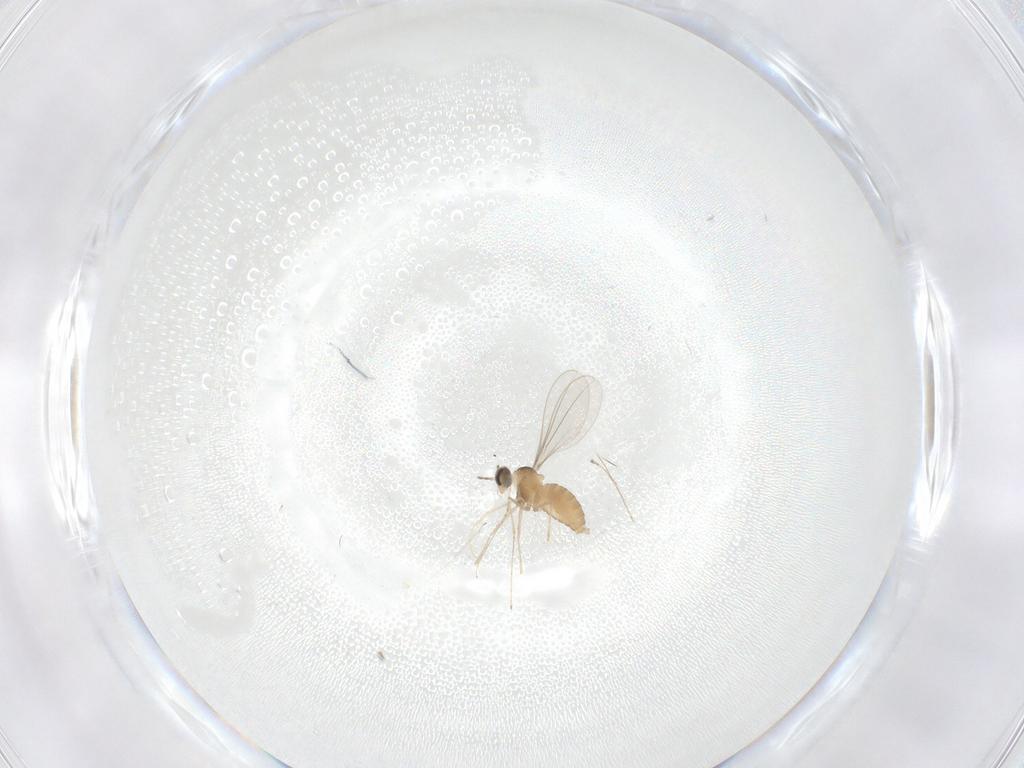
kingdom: Animalia
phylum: Arthropoda
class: Insecta
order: Diptera
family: Cecidomyiidae
